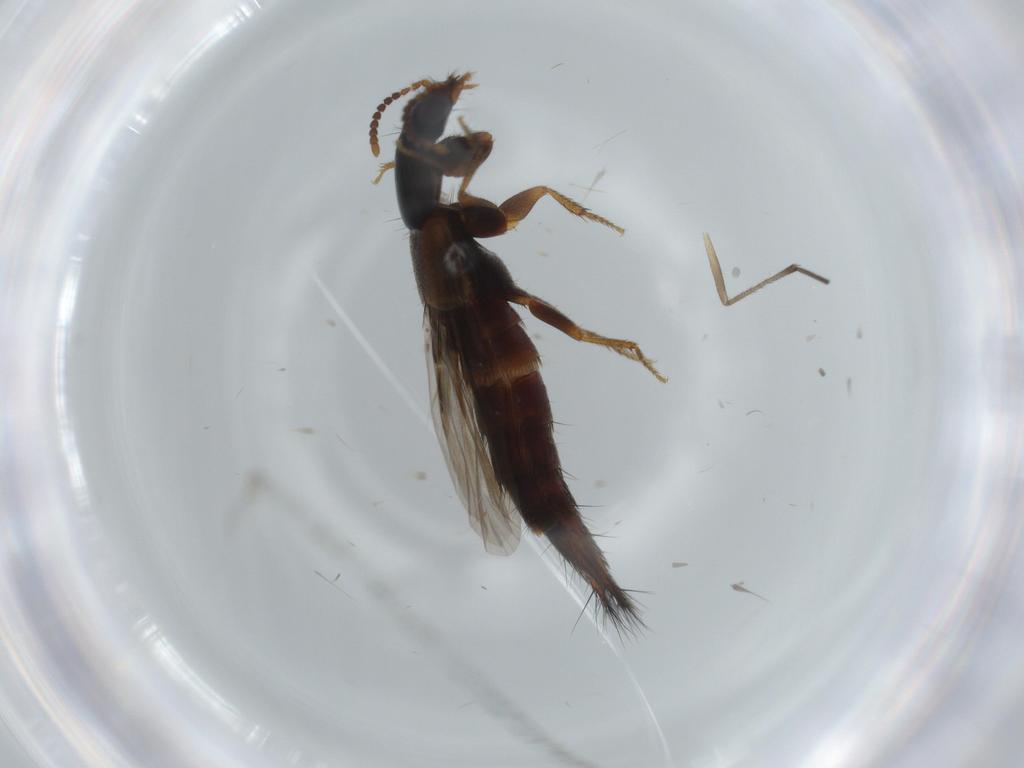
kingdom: Animalia
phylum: Arthropoda
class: Insecta
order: Coleoptera
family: Staphylinidae
